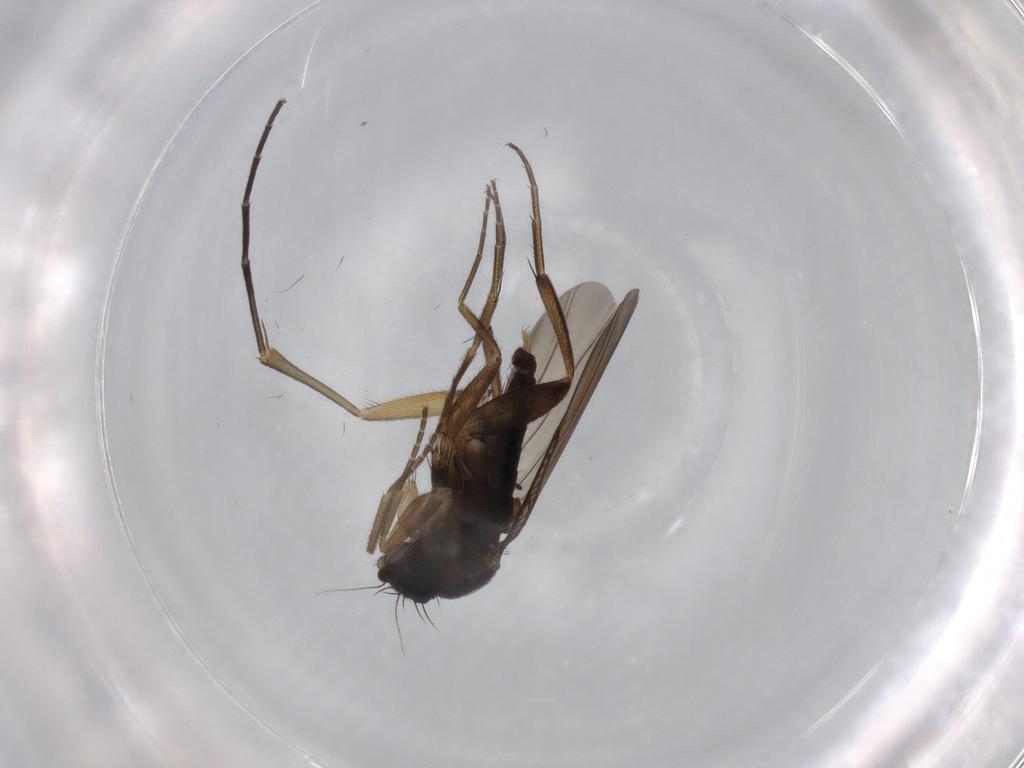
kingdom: Animalia
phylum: Arthropoda
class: Insecta
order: Diptera
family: Phoridae
